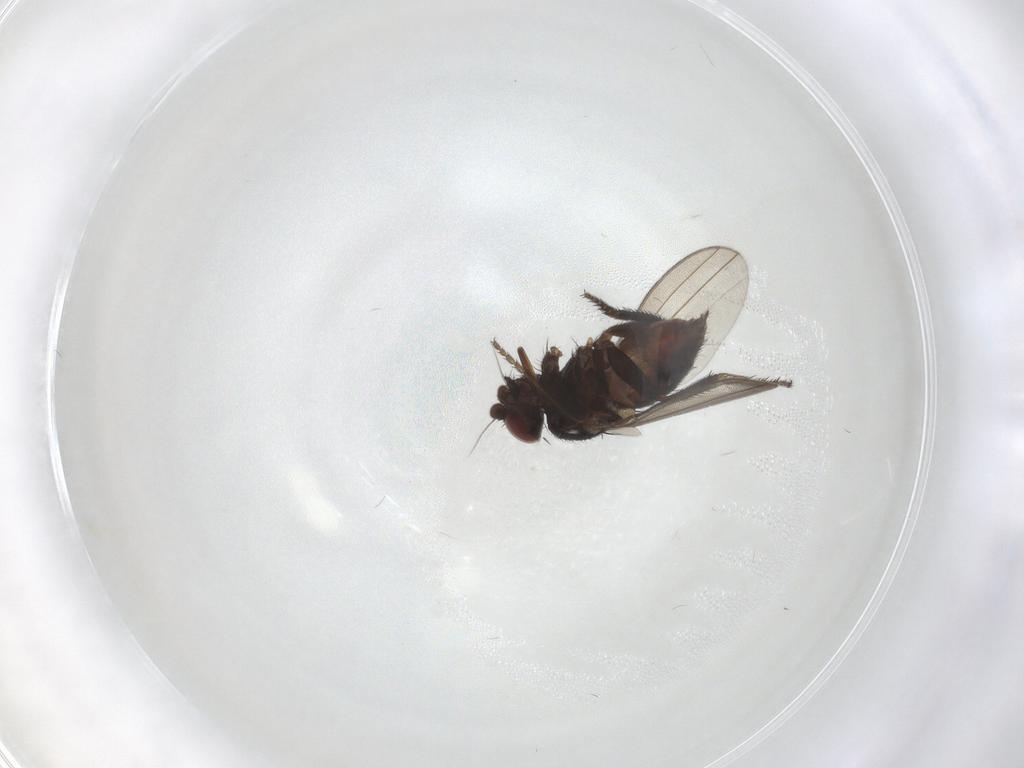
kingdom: Animalia
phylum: Arthropoda
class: Insecta
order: Diptera
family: Milichiidae
